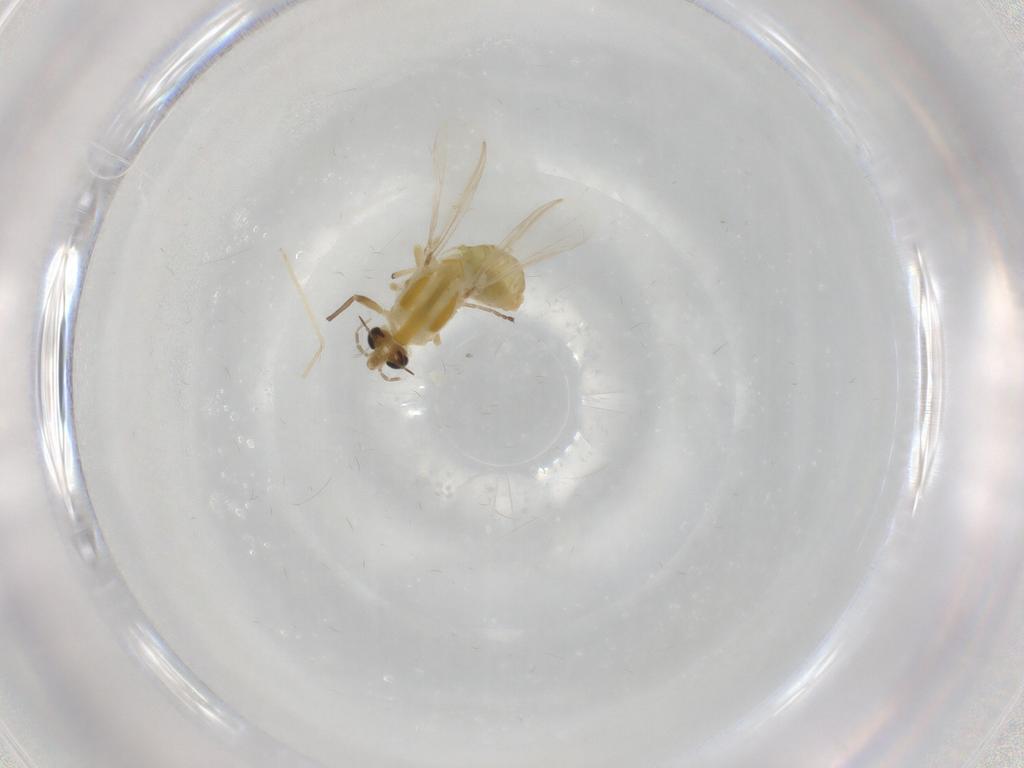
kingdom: Animalia
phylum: Arthropoda
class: Insecta
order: Diptera
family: Chironomidae
